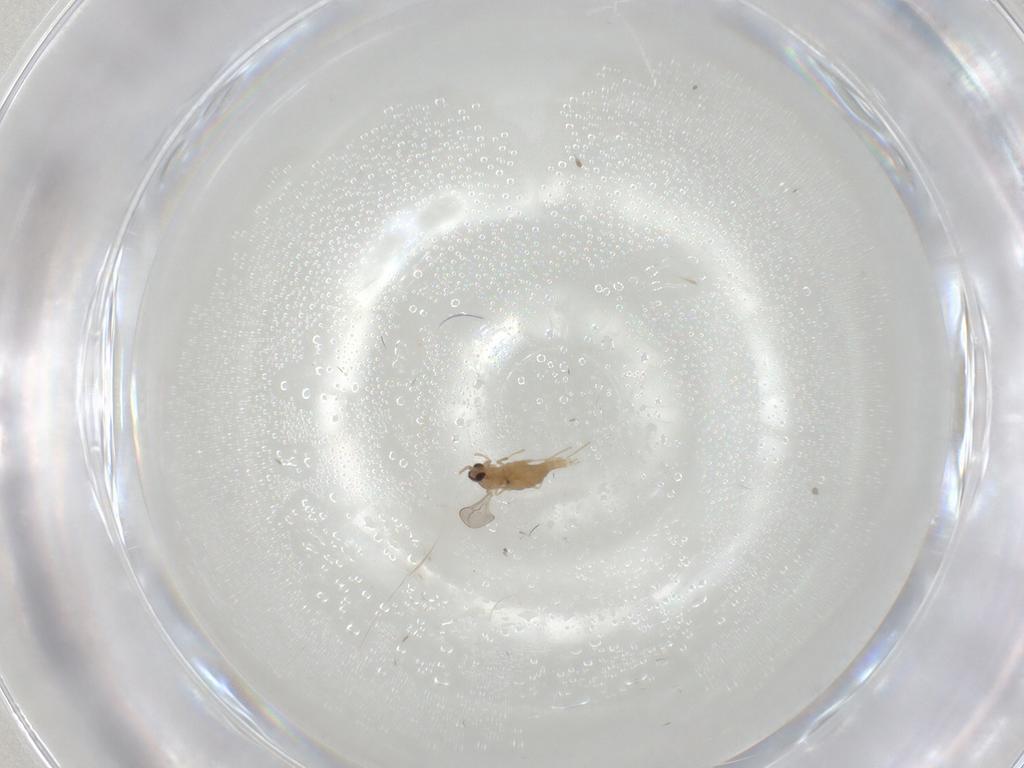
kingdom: Animalia
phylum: Arthropoda
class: Insecta
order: Diptera
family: Cecidomyiidae
